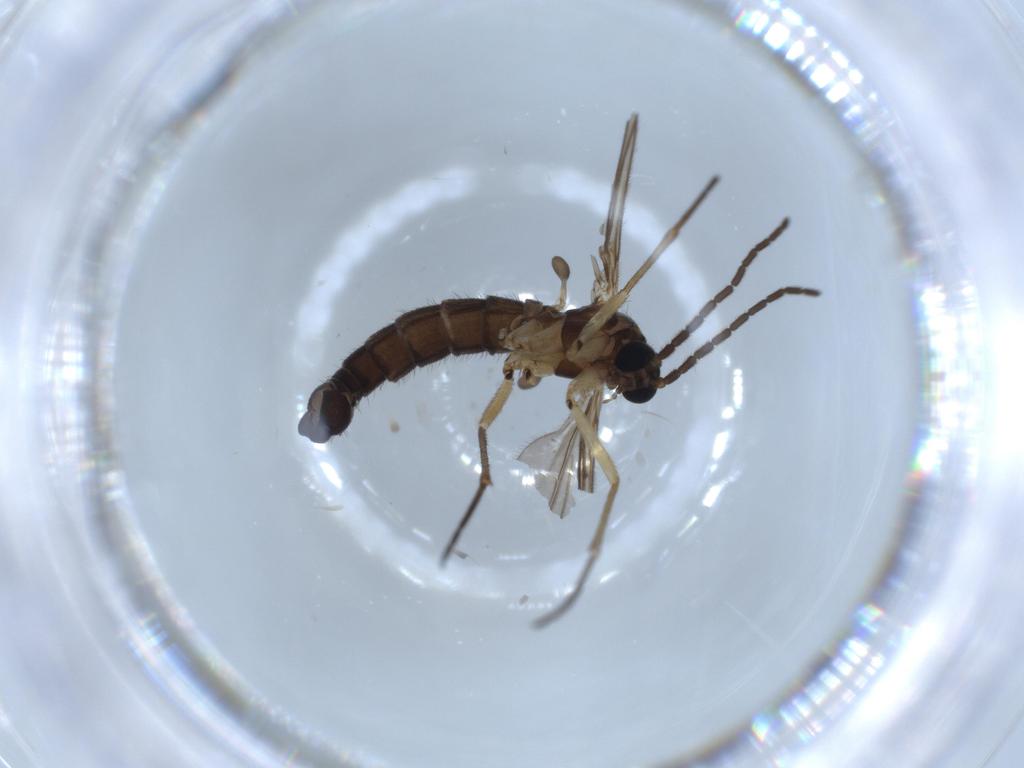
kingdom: Animalia
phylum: Arthropoda
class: Insecta
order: Diptera
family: Sciaridae
